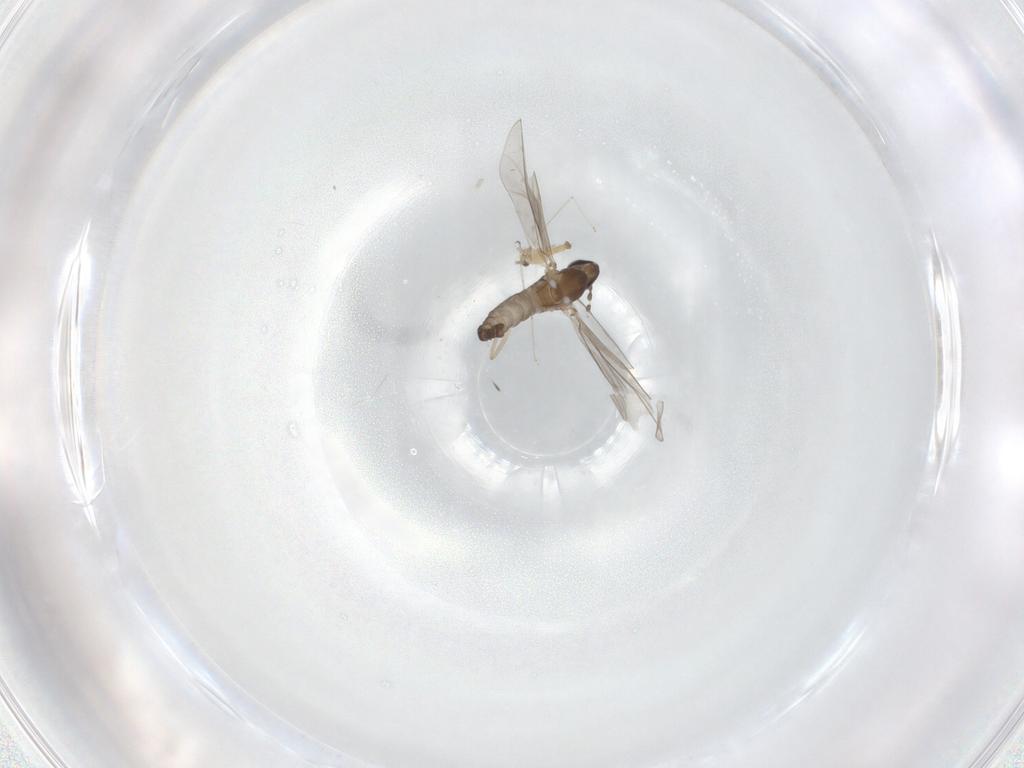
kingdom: Animalia
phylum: Arthropoda
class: Insecta
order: Diptera
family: Cecidomyiidae
